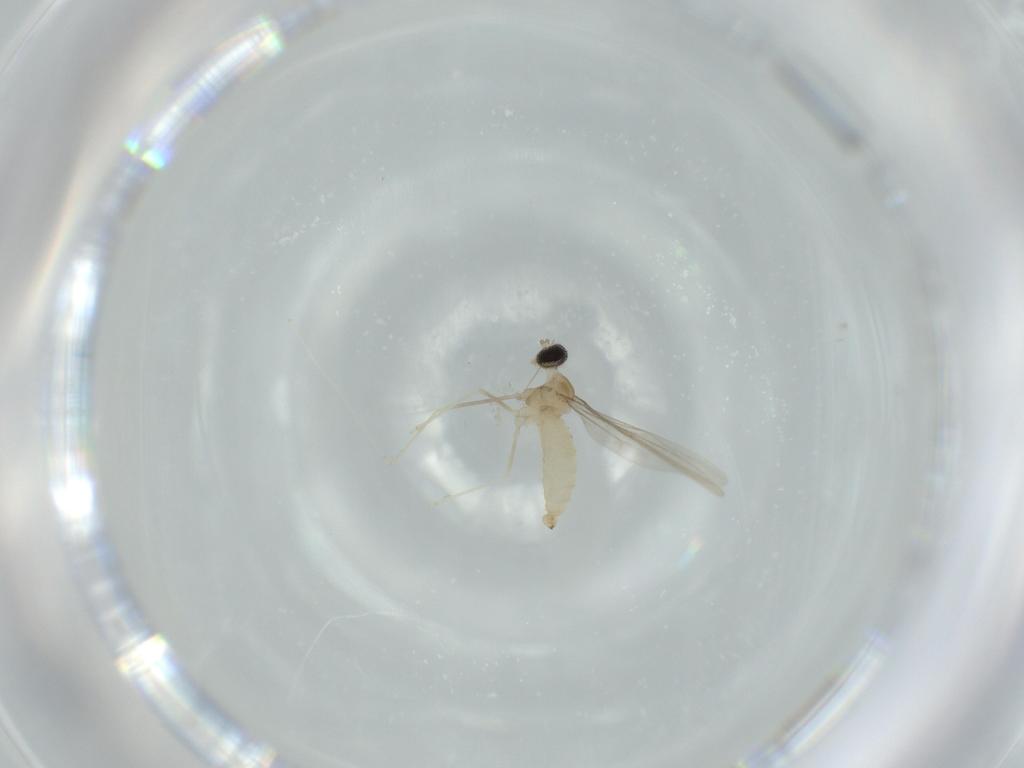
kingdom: Animalia
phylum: Arthropoda
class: Insecta
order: Diptera
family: Cecidomyiidae
